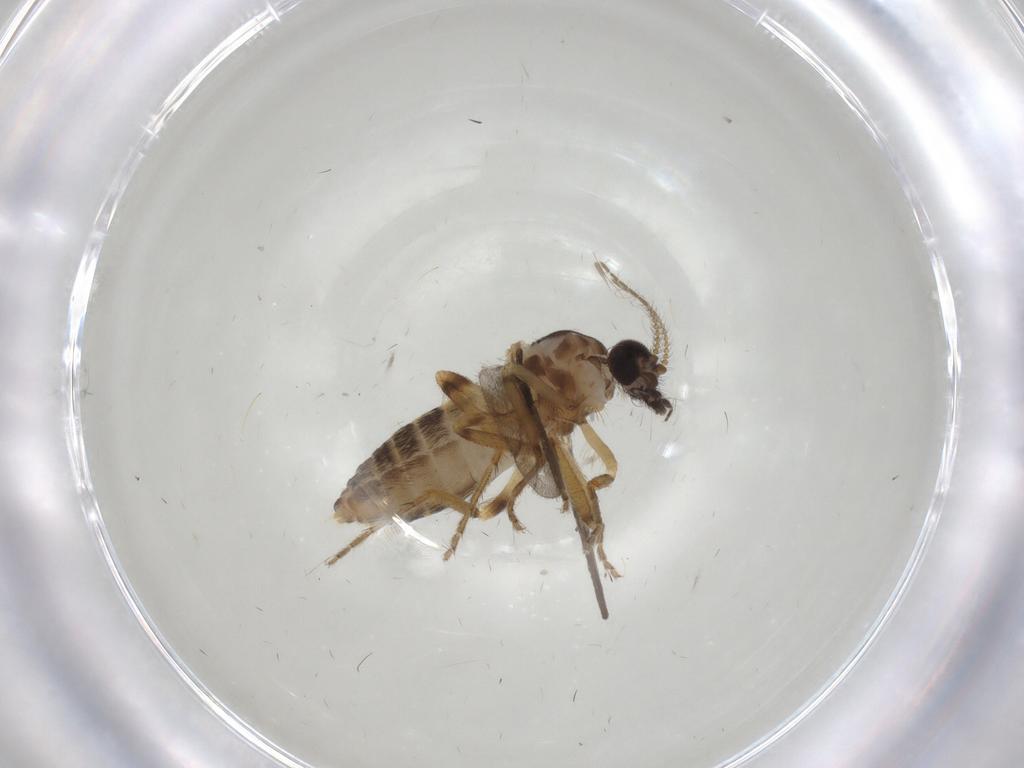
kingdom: Animalia
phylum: Arthropoda
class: Insecta
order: Diptera
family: Ceratopogonidae
